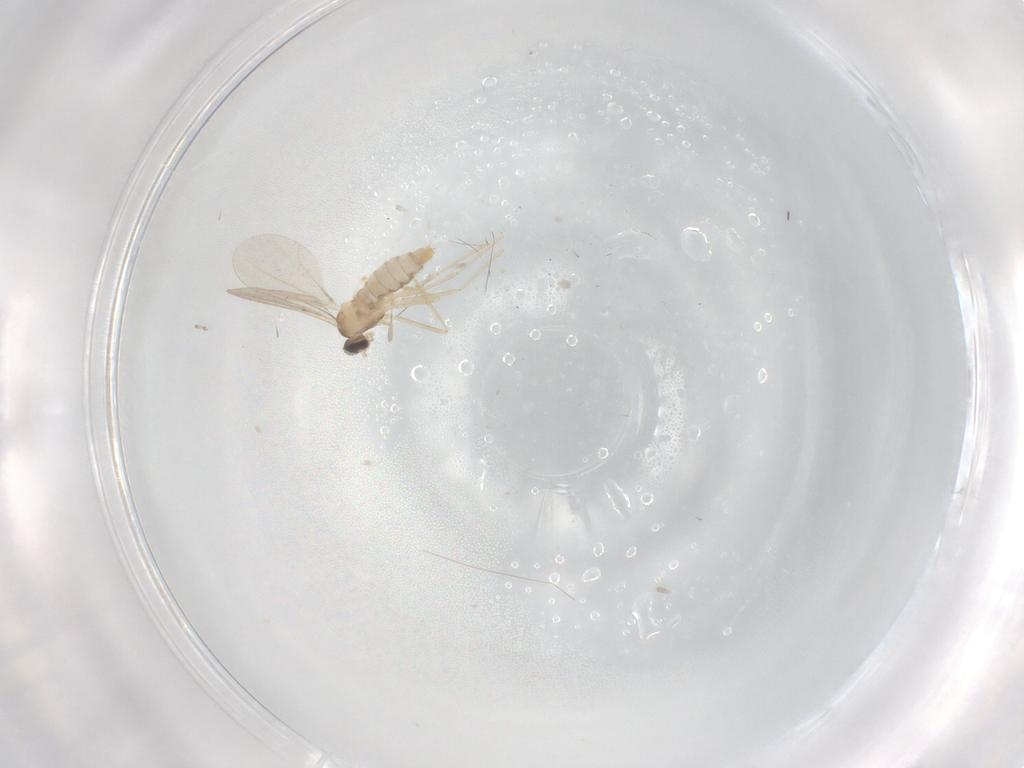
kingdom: Animalia
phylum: Arthropoda
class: Insecta
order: Diptera
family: Cecidomyiidae
